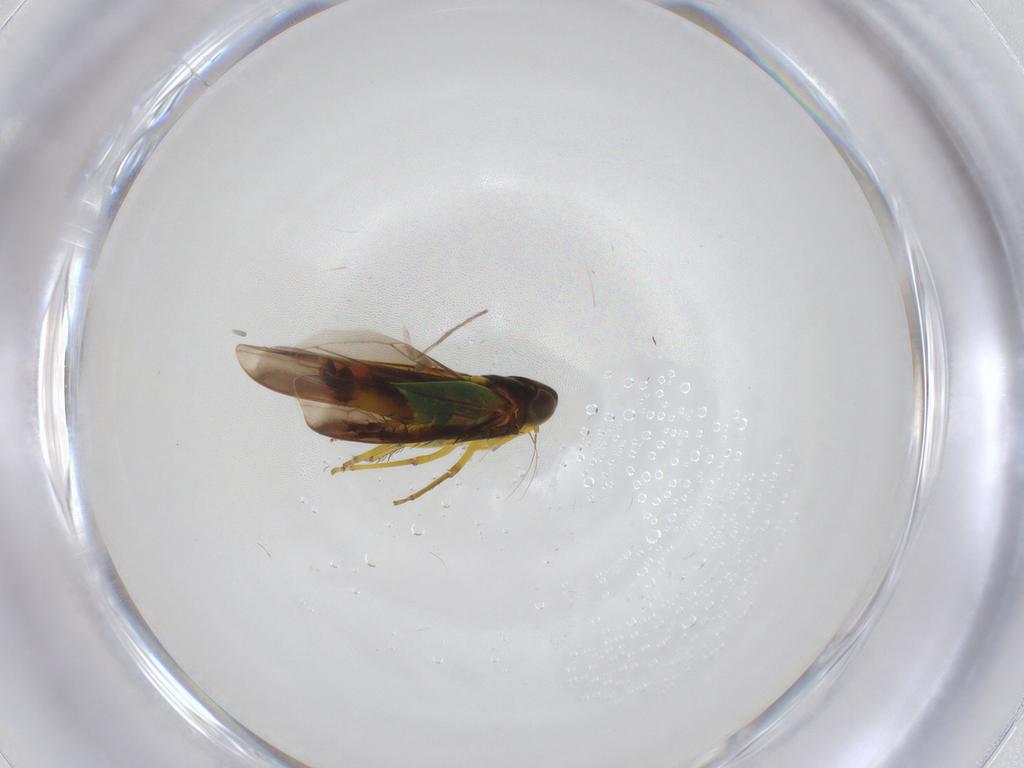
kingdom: Animalia
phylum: Arthropoda
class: Insecta
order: Hemiptera
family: Cicadellidae
